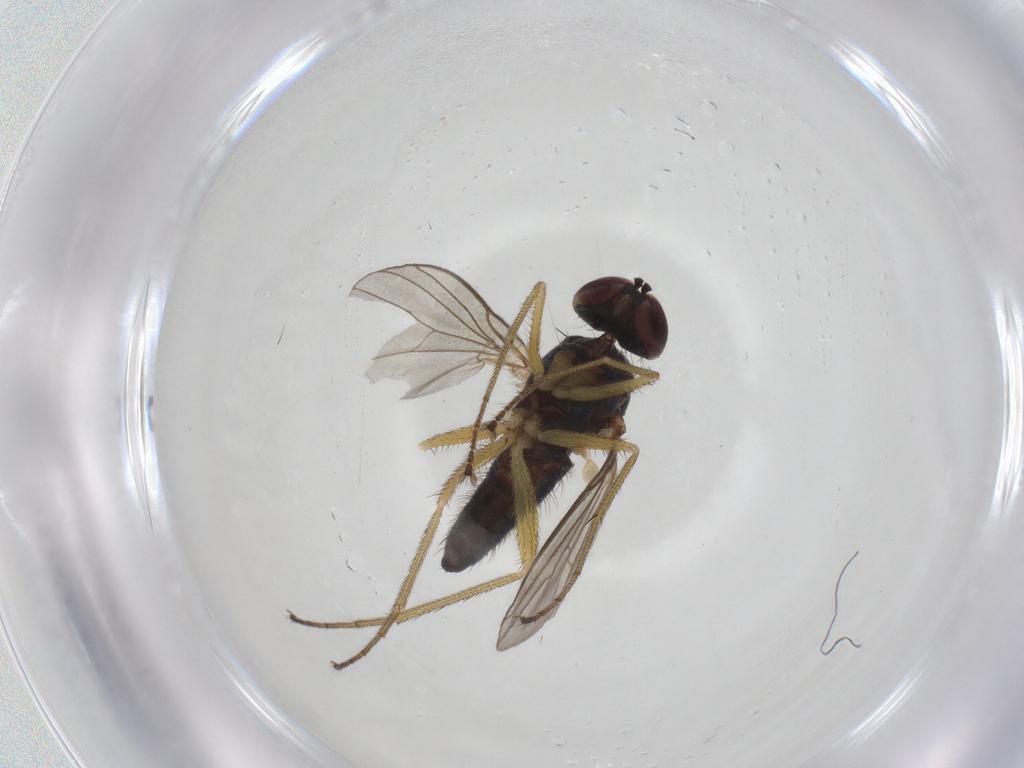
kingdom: Animalia
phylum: Arthropoda
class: Insecta
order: Diptera
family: Dolichopodidae
